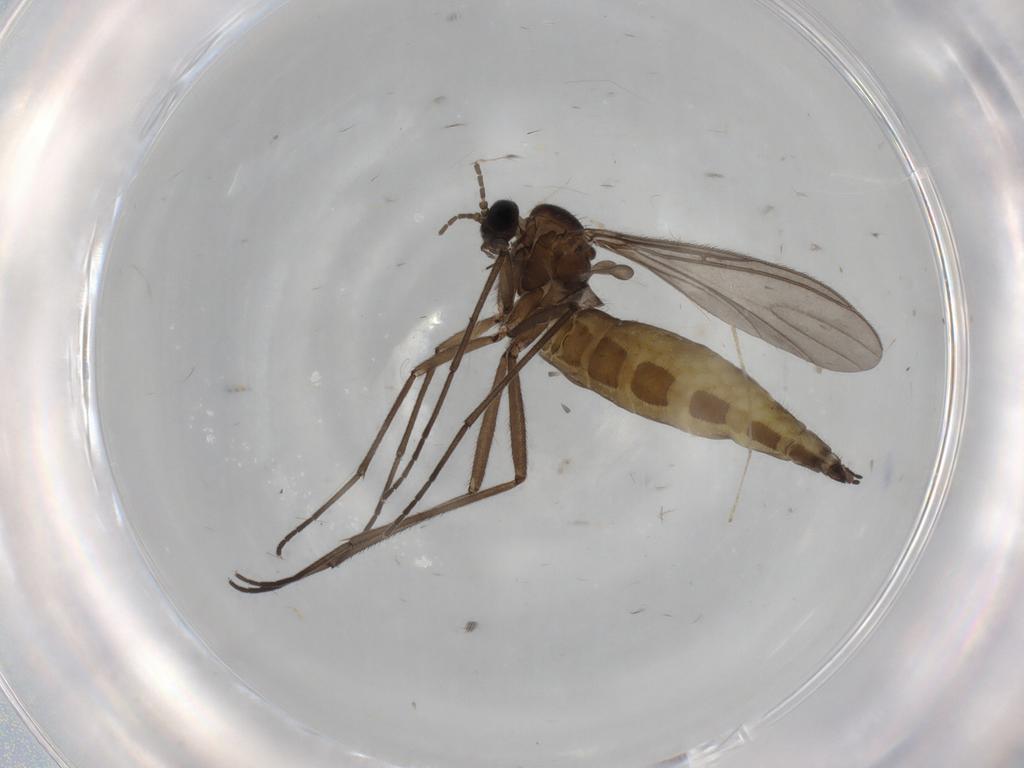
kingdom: Animalia
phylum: Arthropoda
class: Insecta
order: Diptera
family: Sciaridae
